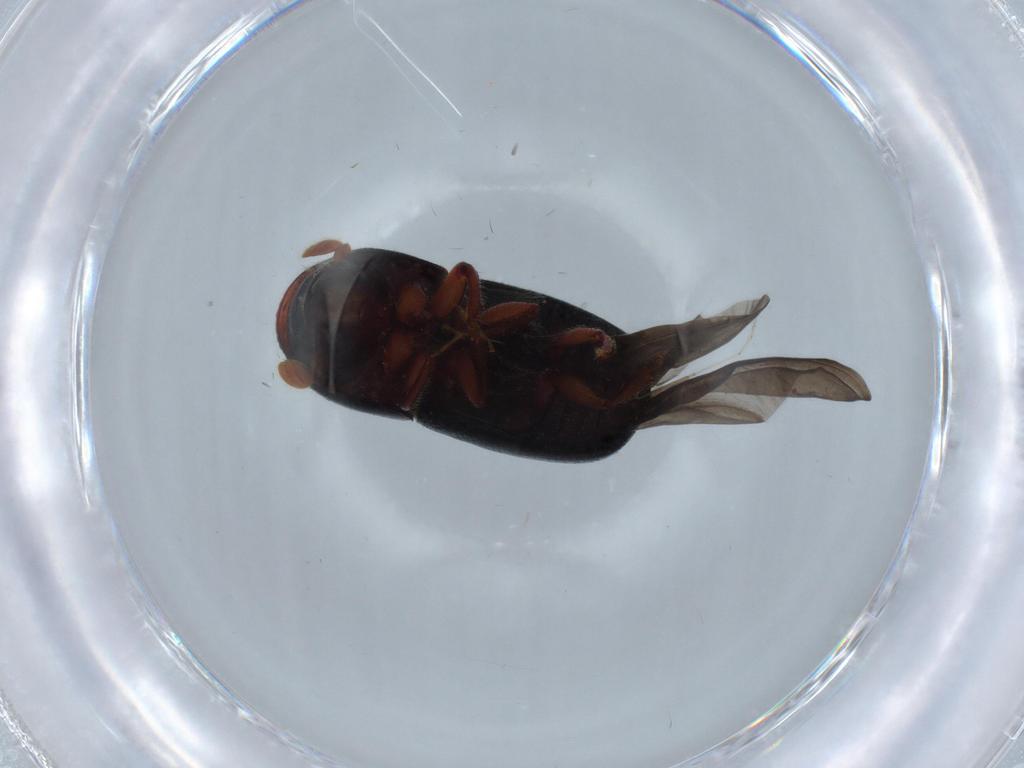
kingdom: Animalia
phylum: Arthropoda
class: Insecta
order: Coleoptera
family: Curculionidae
